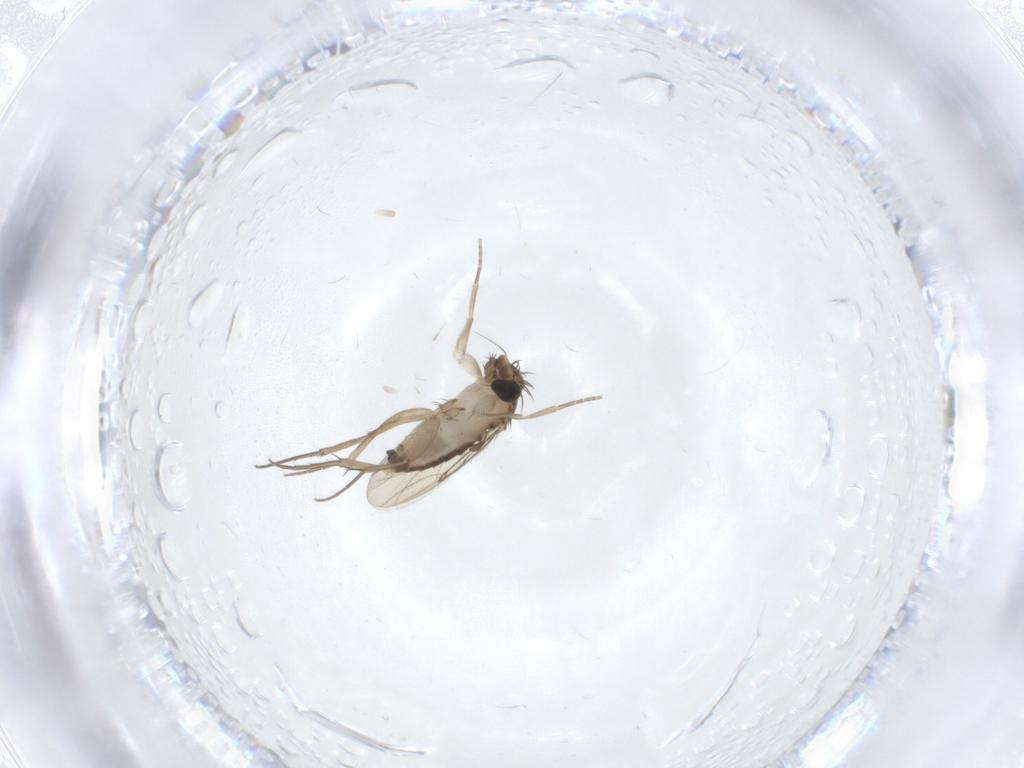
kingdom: Animalia
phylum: Arthropoda
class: Insecta
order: Diptera
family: Phoridae
